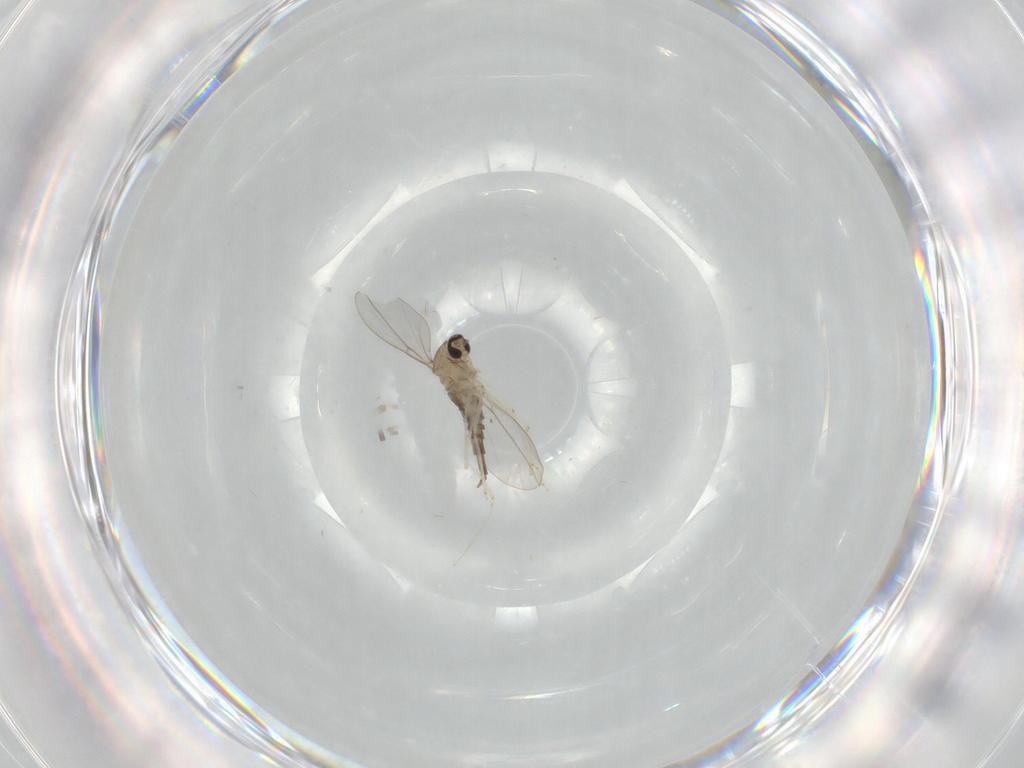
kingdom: Animalia
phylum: Arthropoda
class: Insecta
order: Diptera
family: Cecidomyiidae
